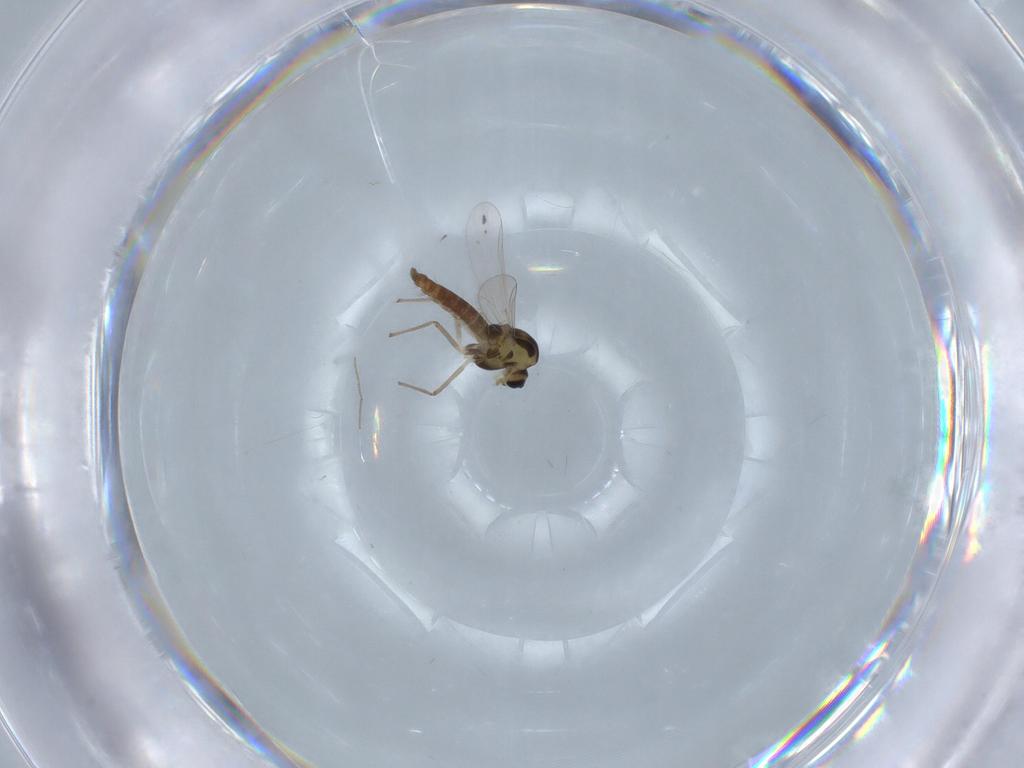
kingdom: Animalia
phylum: Arthropoda
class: Insecta
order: Diptera
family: Chironomidae
